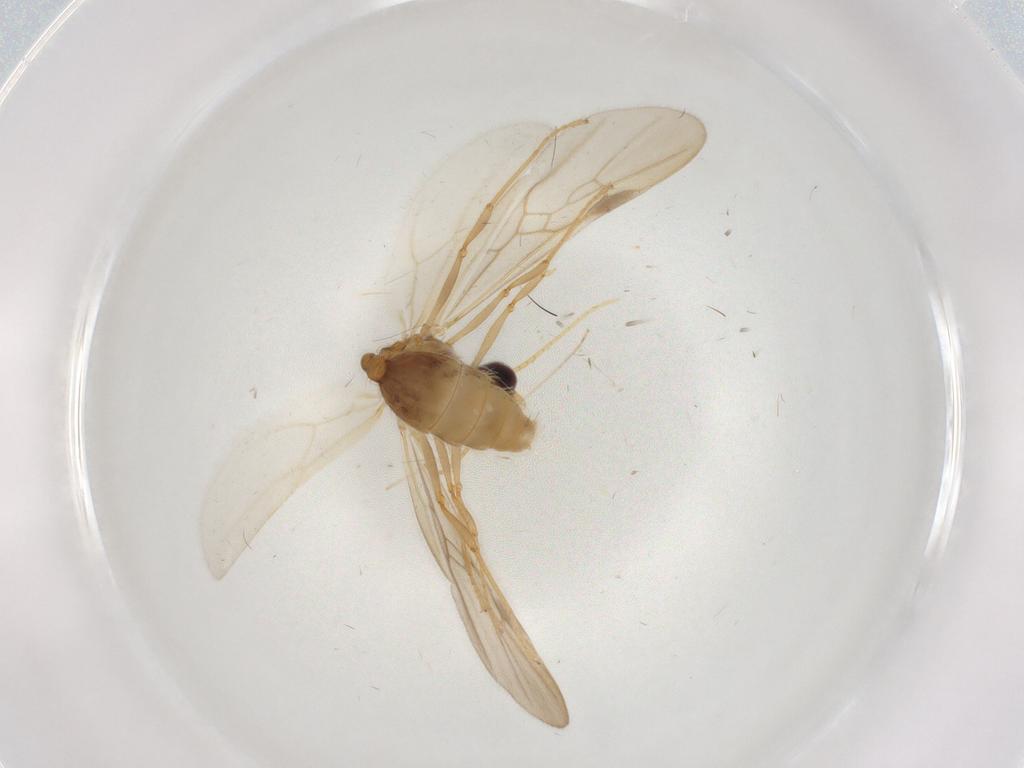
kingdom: Animalia
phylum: Arthropoda
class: Insecta
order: Hymenoptera
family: Formicidae
